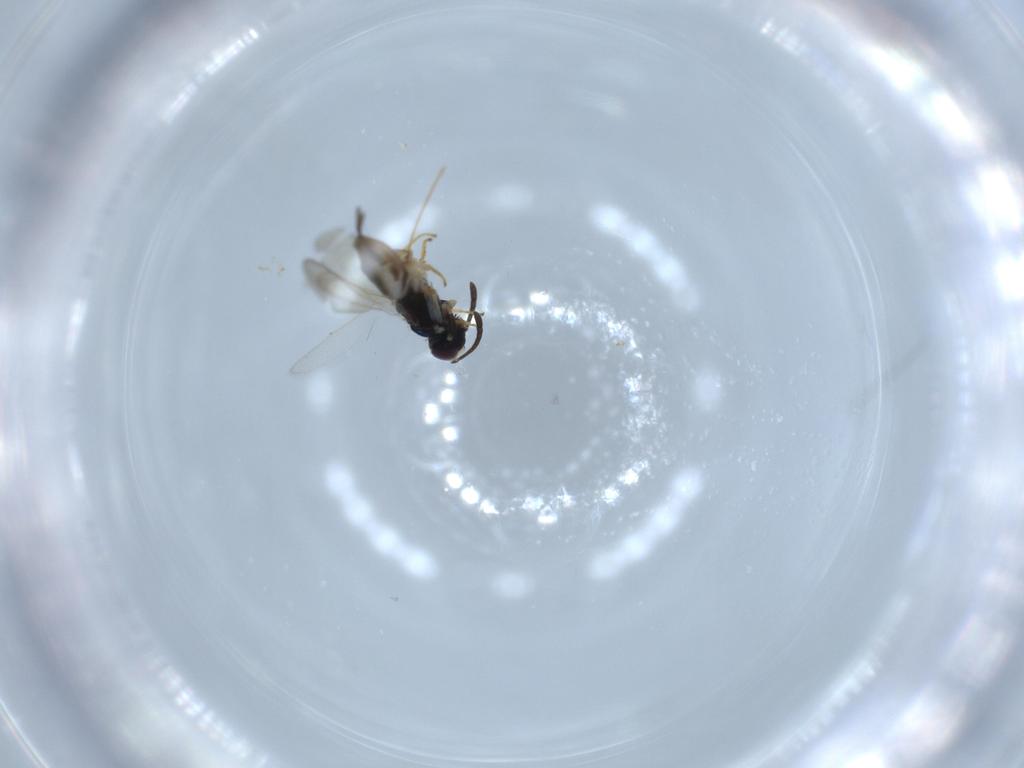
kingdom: Animalia
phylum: Arthropoda
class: Insecta
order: Hymenoptera
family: Eupelmidae
